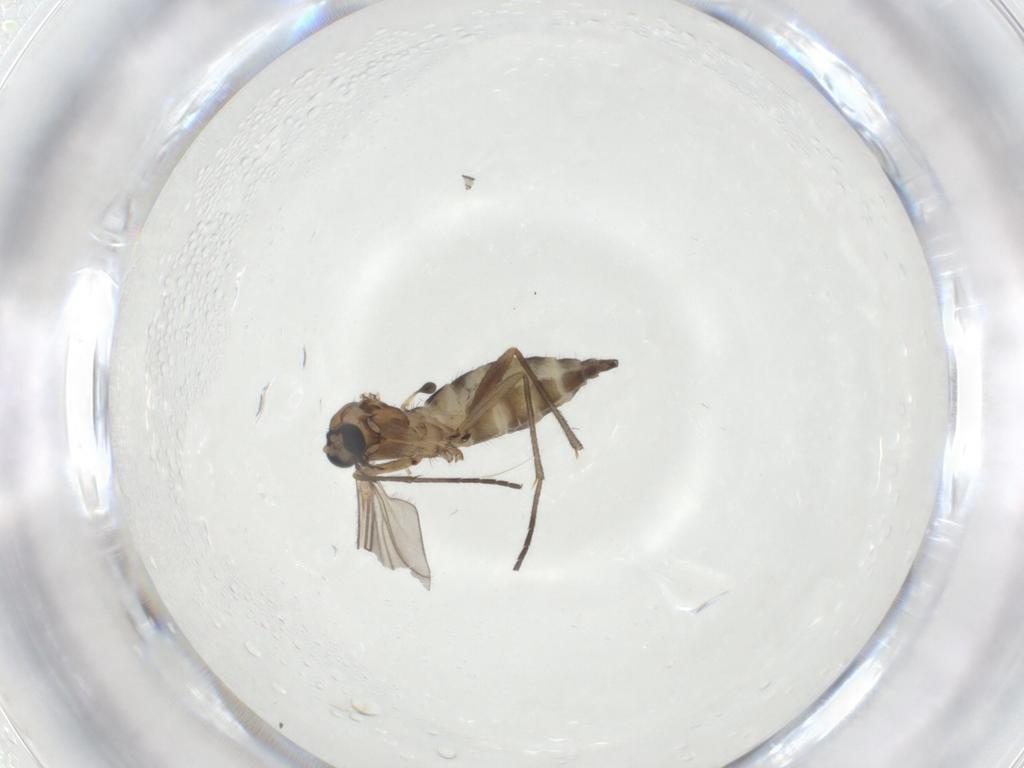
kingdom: Animalia
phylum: Arthropoda
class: Insecta
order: Diptera
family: Sciaridae
